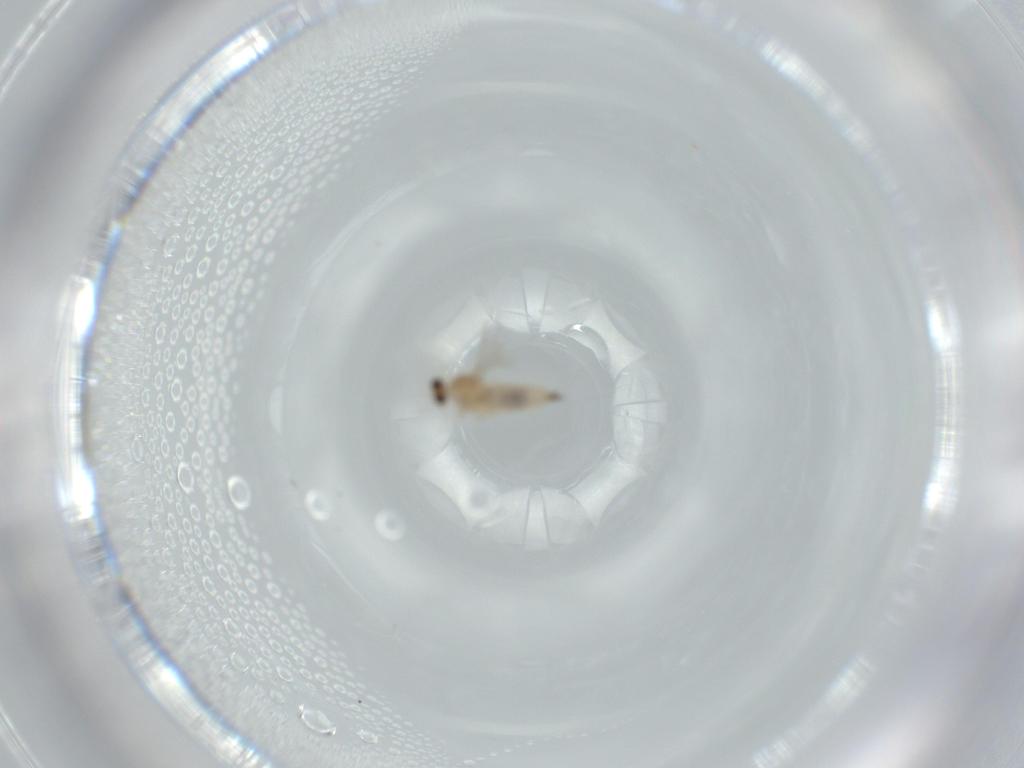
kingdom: Animalia
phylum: Arthropoda
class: Insecta
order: Diptera
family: Cecidomyiidae
